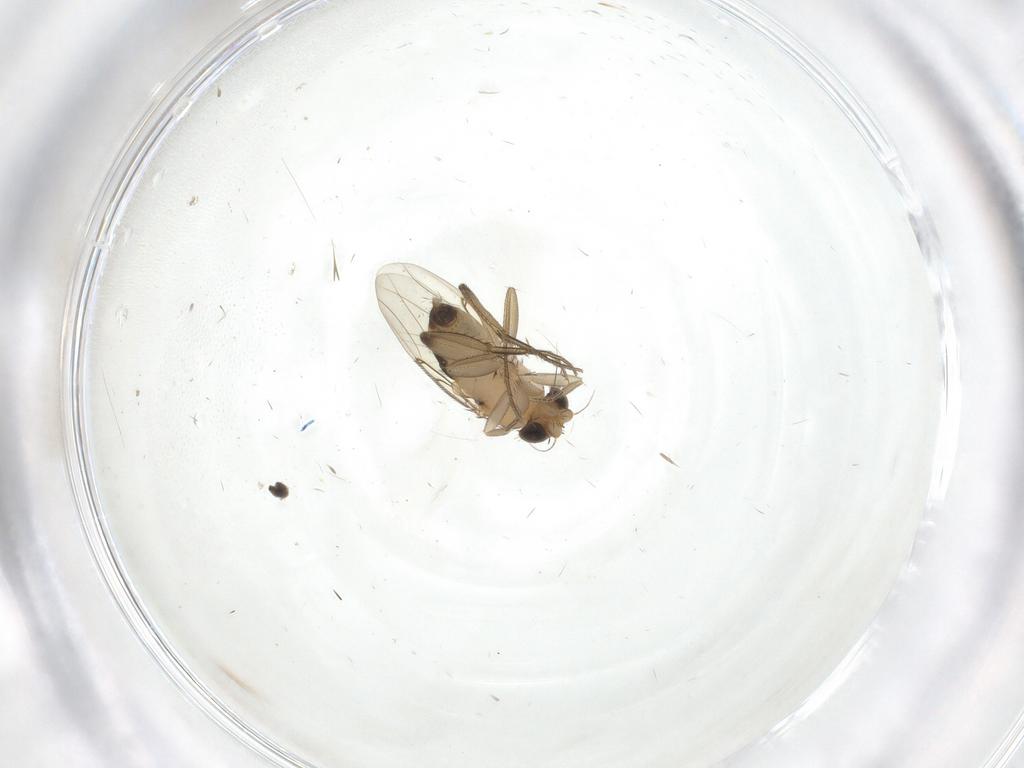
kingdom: Animalia
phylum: Arthropoda
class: Insecta
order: Diptera
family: Phoridae
